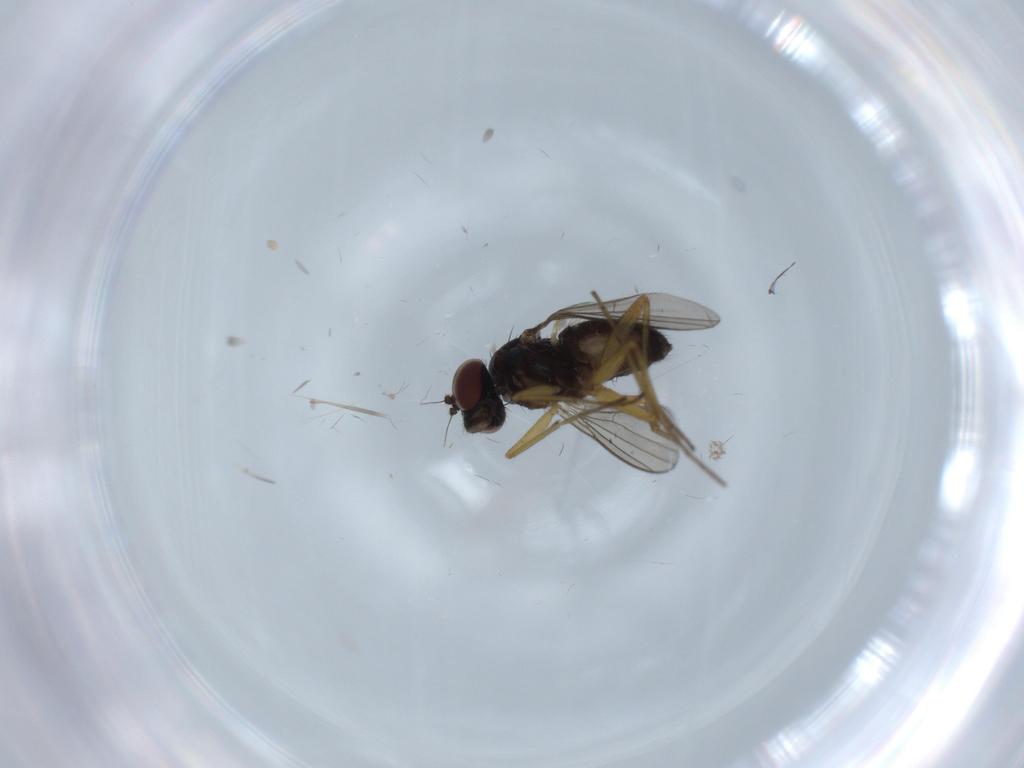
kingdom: Animalia
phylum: Arthropoda
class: Insecta
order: Diptera
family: Dolichopodidae
